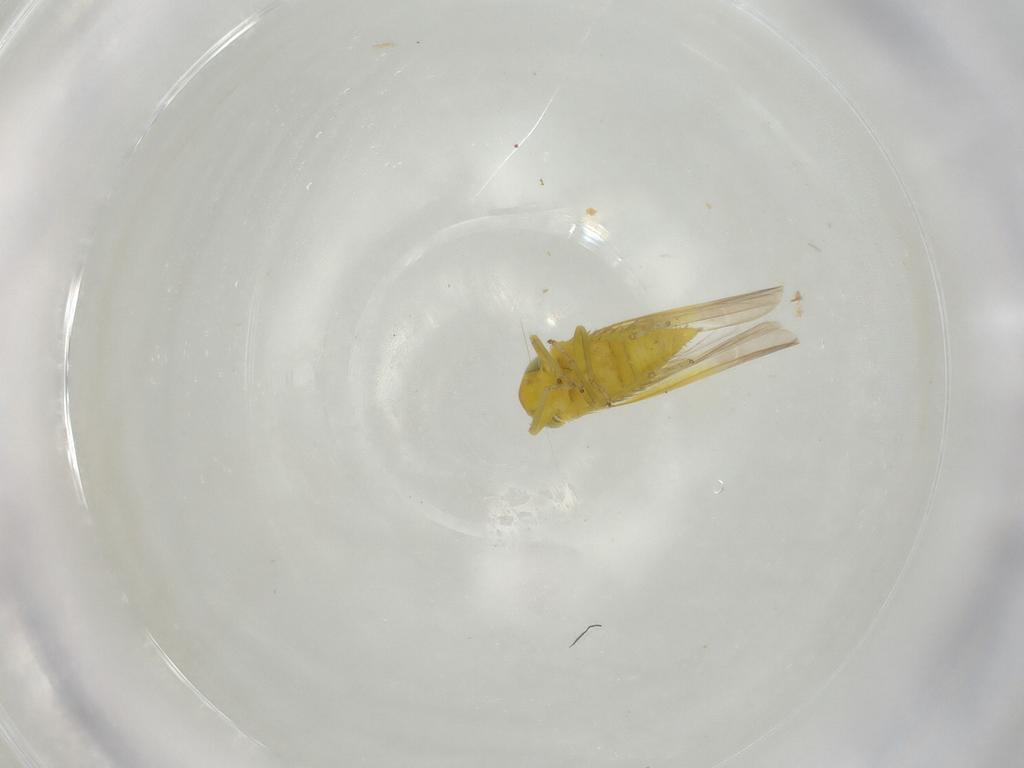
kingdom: Animalia
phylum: Arthropoda
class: Insecta
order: Hemiptera
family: Cicadellidae
